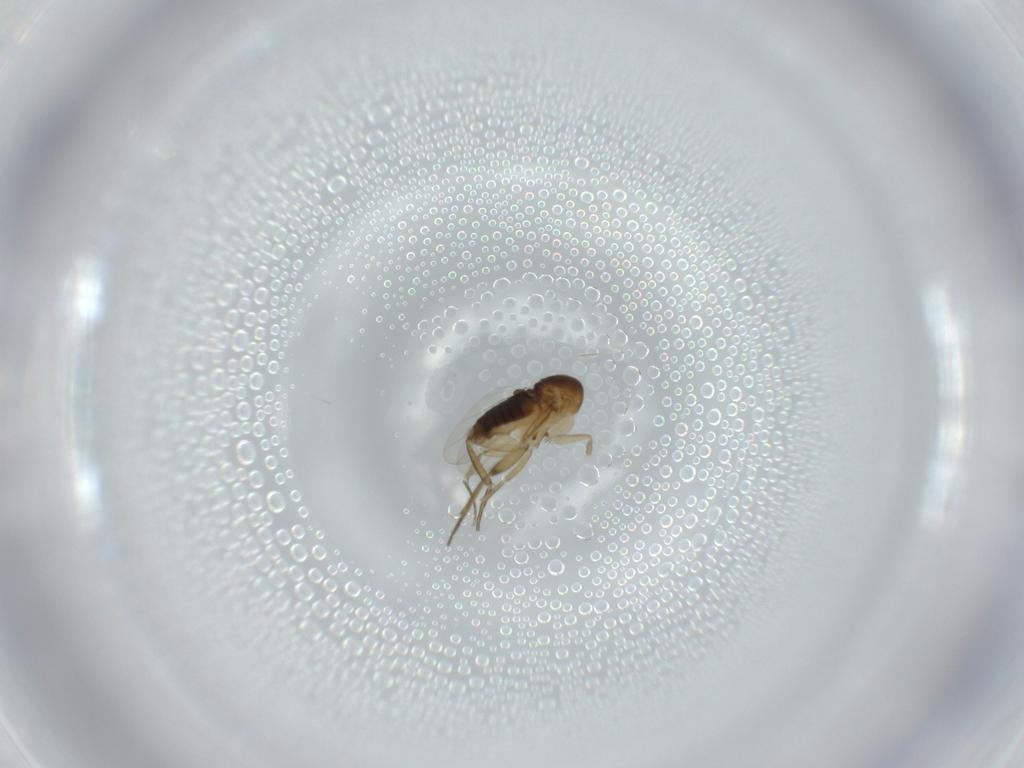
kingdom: Animalia
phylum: Arthropoda
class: Insecta
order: Diptera
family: Phoridae
